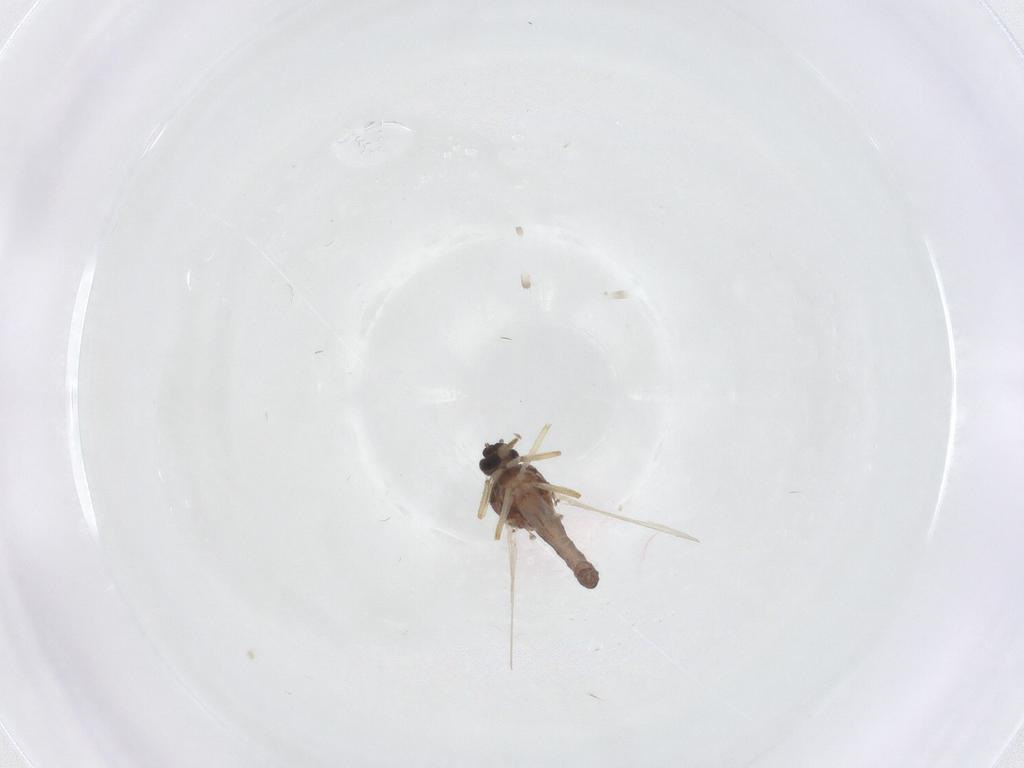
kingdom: Animalia
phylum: Arthropoda
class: Insecta
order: Diptera
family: Ceratopogonidae
